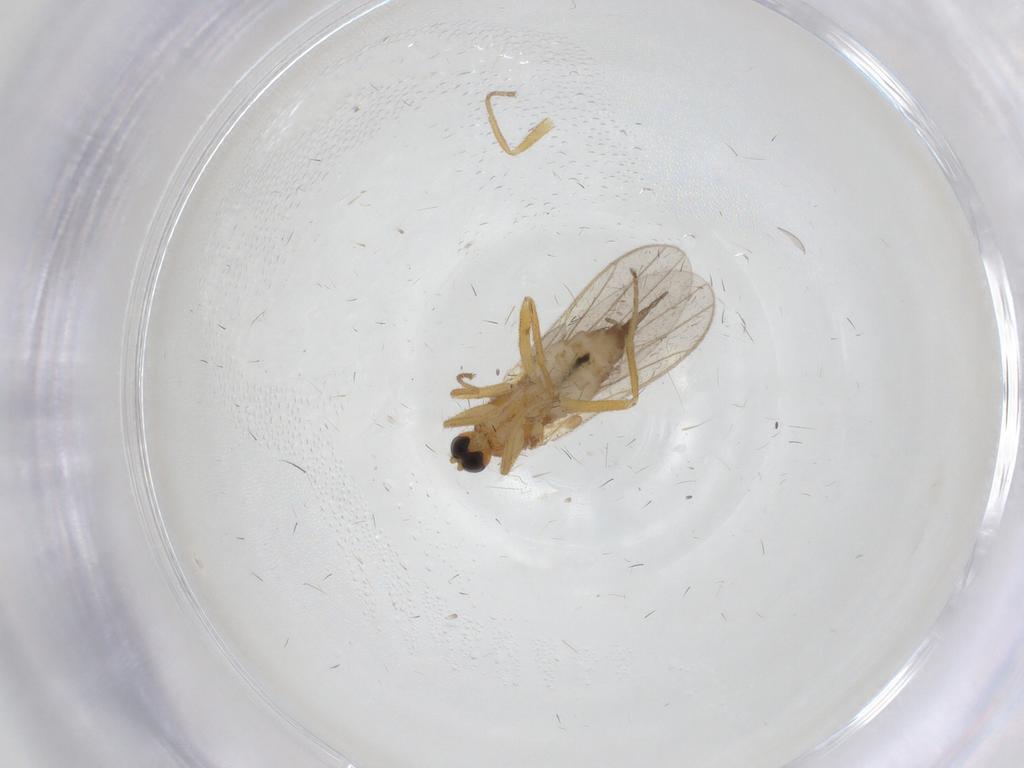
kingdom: Animalia
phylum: Arthropoda
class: Insecta
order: Diptera
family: Hybotidae
